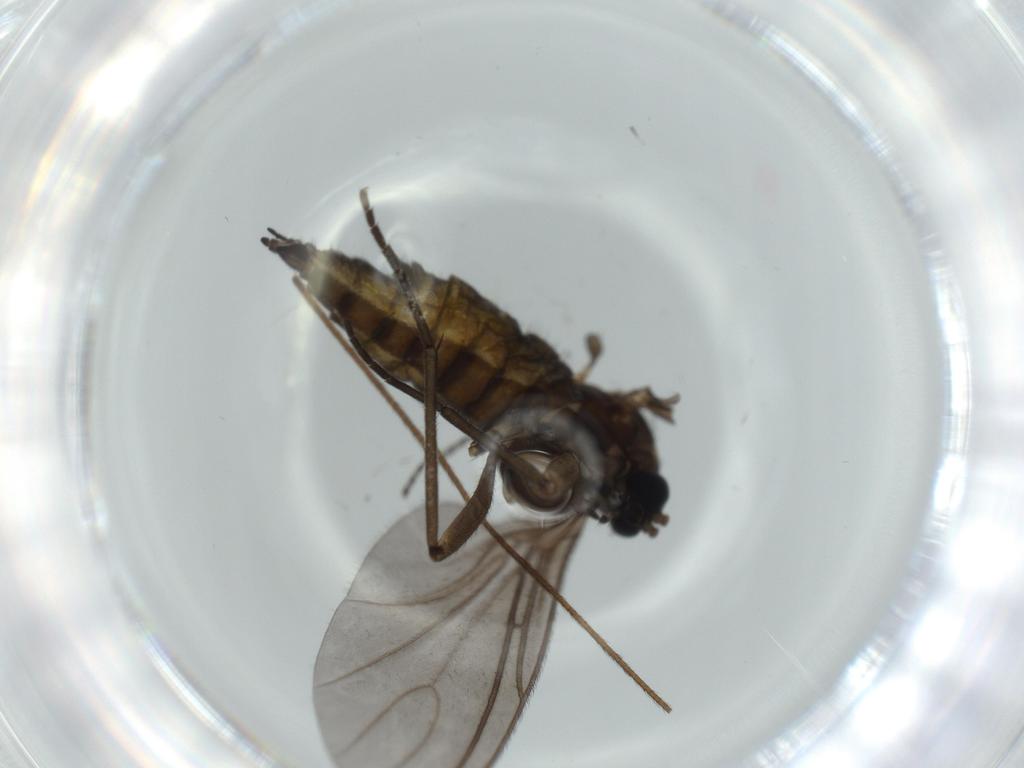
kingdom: Animalia
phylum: Arthropoda
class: Insecta
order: Diptera
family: Sciaridae
